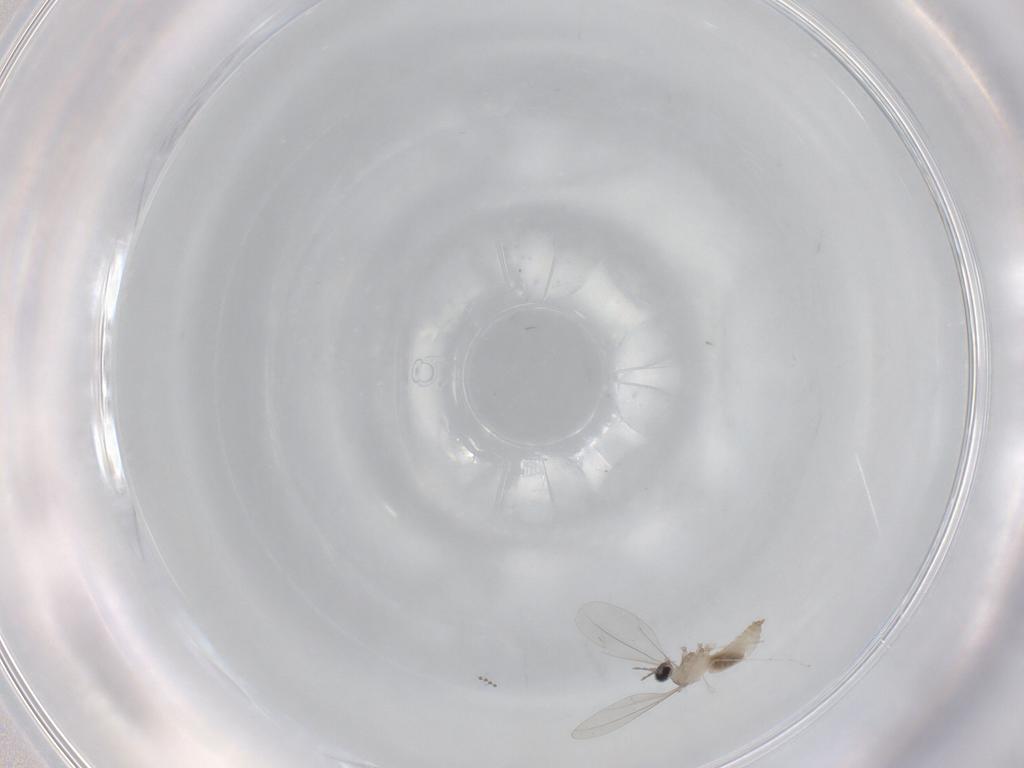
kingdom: Animalia
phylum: Arthropoda
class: Insecta
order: Diptera
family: Cecidomyiidae
